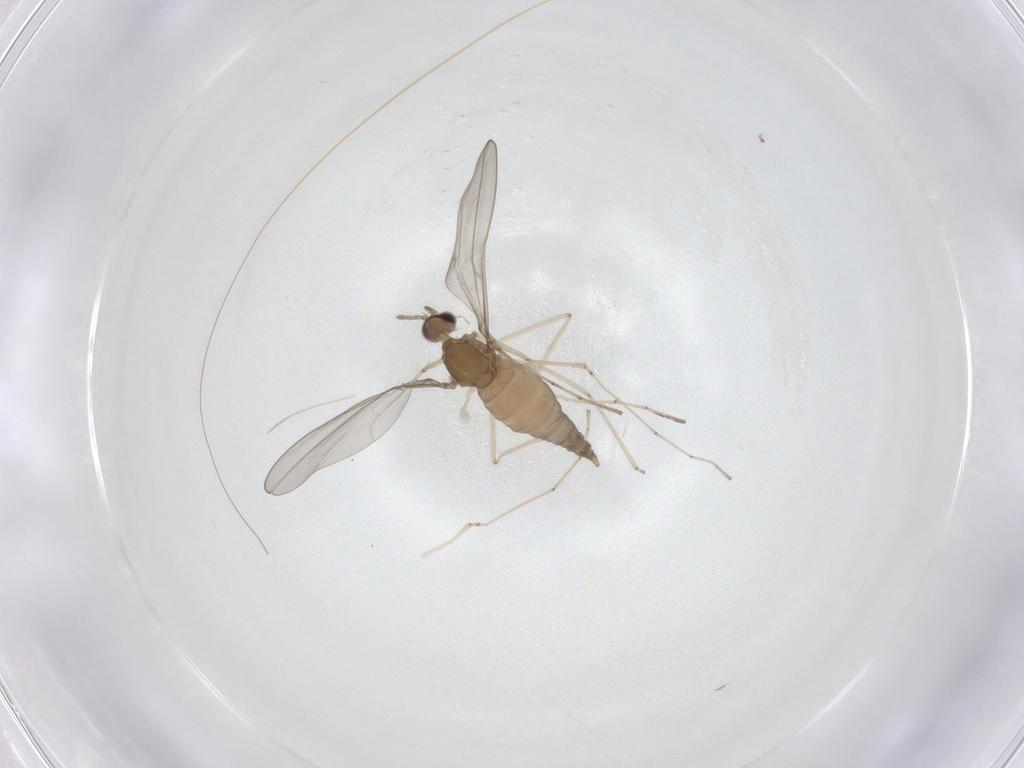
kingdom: Animalia
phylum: Arthropoda
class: Insecta
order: Diptera
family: Cecidomyiidae
